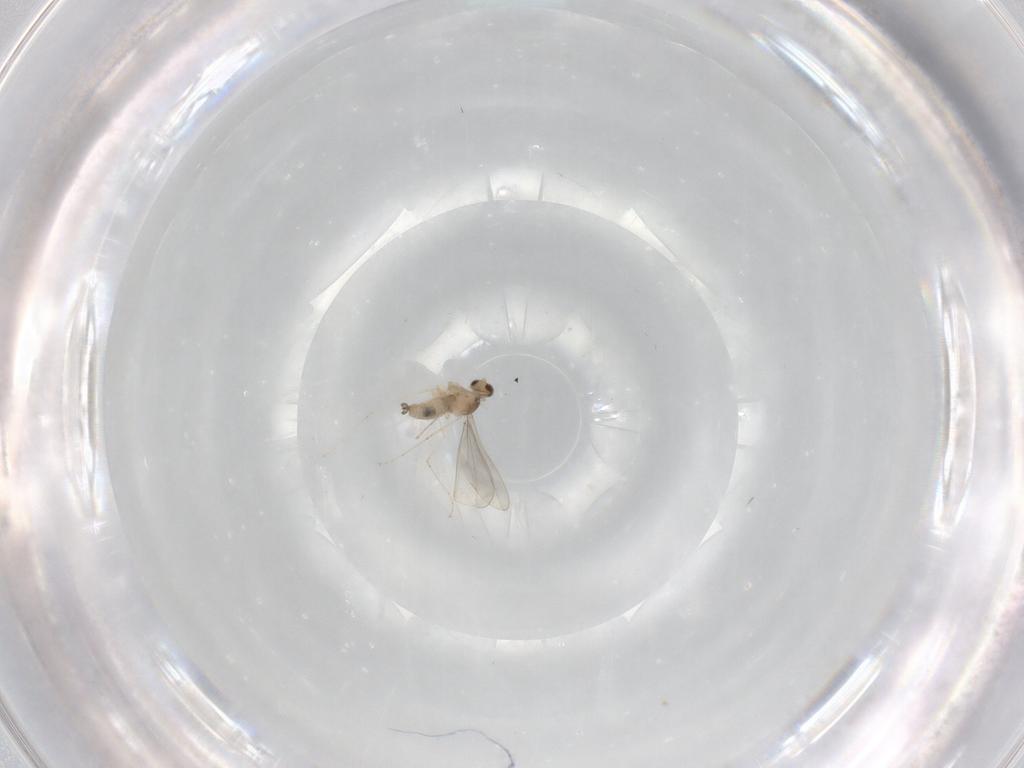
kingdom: Animalia
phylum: Arthropoda
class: Insecta
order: Diptera
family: Cecidomyiidae
